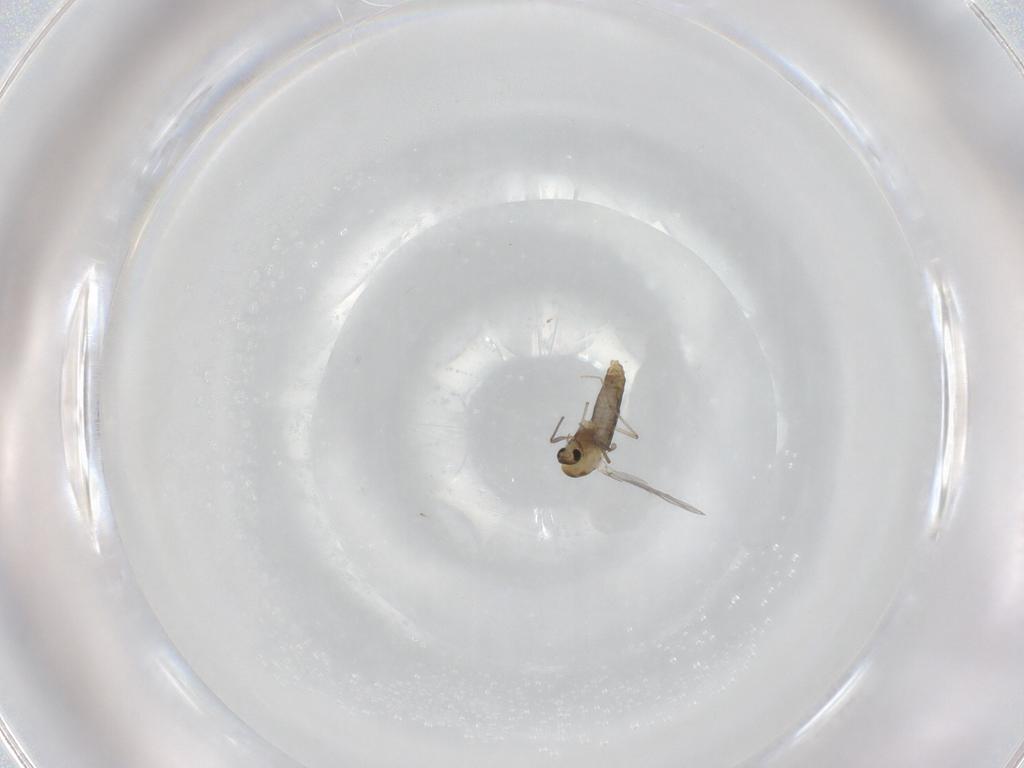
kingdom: Animalia
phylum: Arthropoda
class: Insecta
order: Diptera
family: Chironomidae
